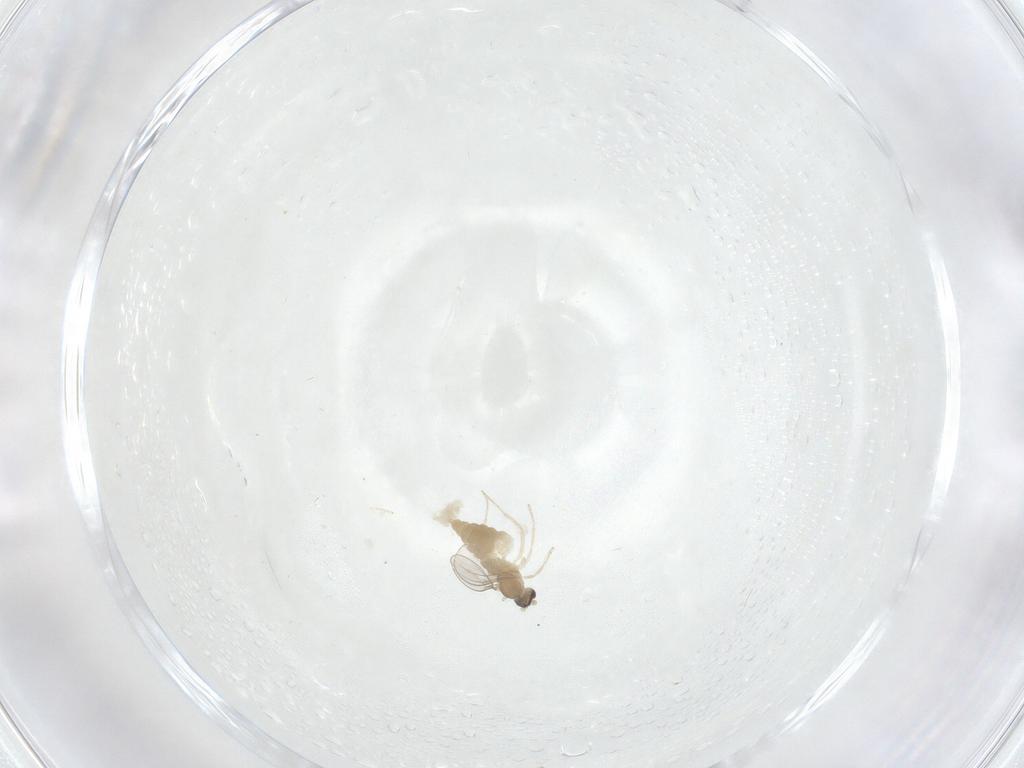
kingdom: Animalia
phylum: Arthropoda
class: Insecta
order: Diptera
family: Cecidomyiidae
